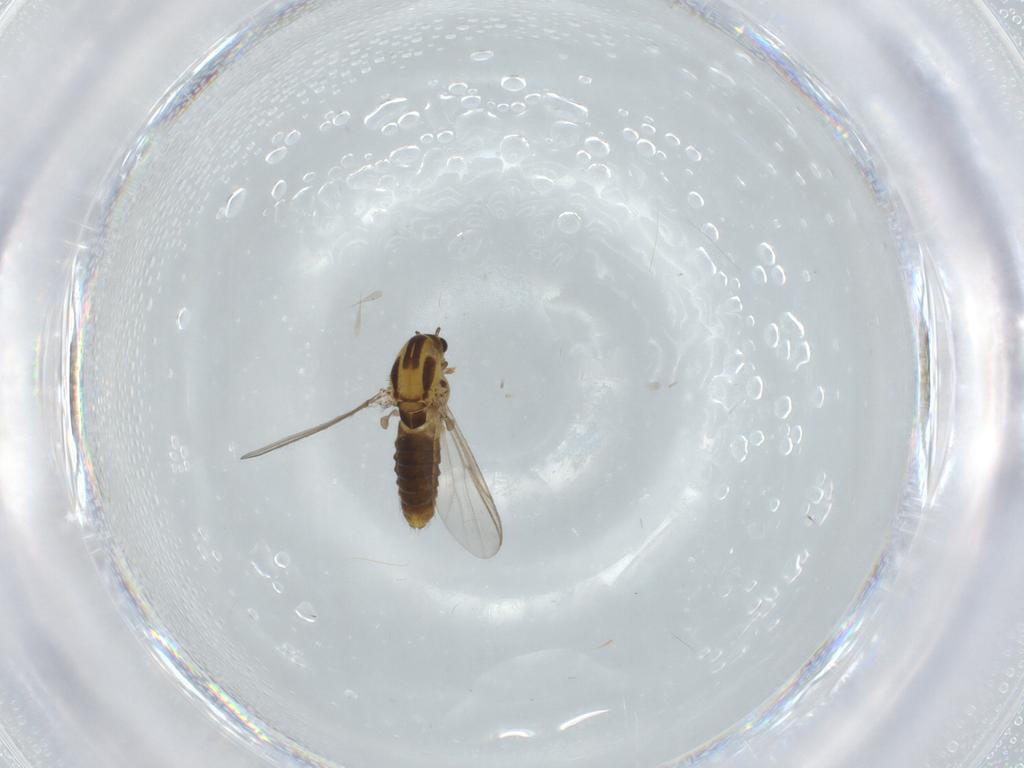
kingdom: Animalia
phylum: Arthropoda
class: Insecta
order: Diptera
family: Chironomidae
